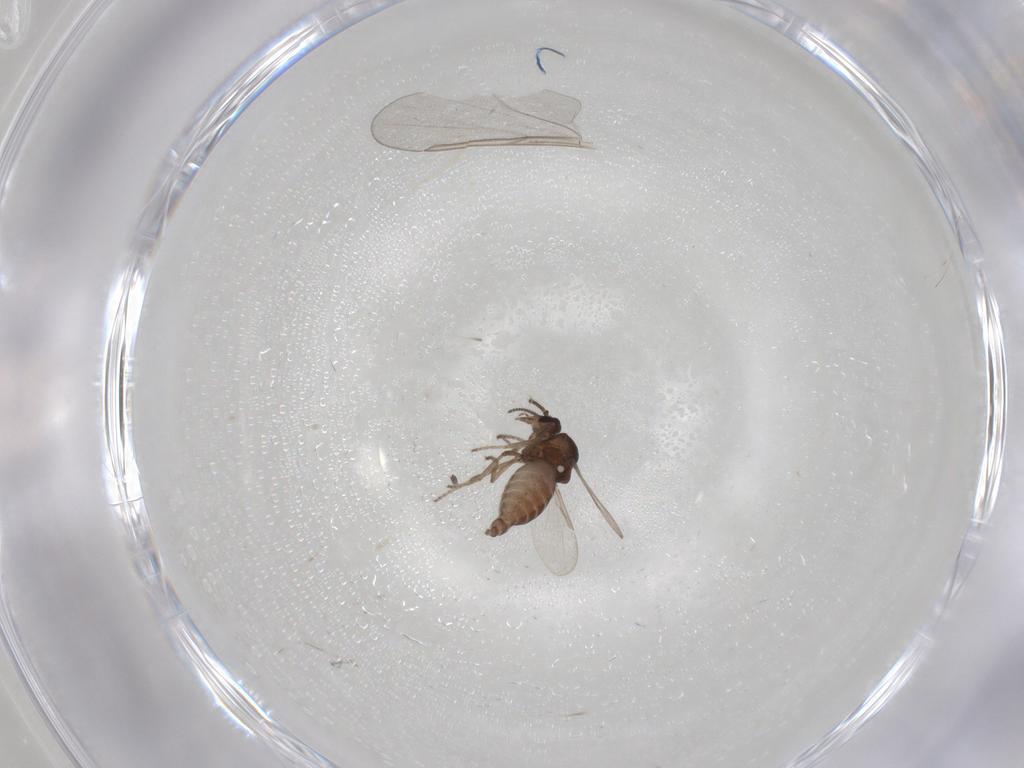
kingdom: Animalia
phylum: Arthropoda
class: Insecta
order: Diptera
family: Ceratopogonidae
